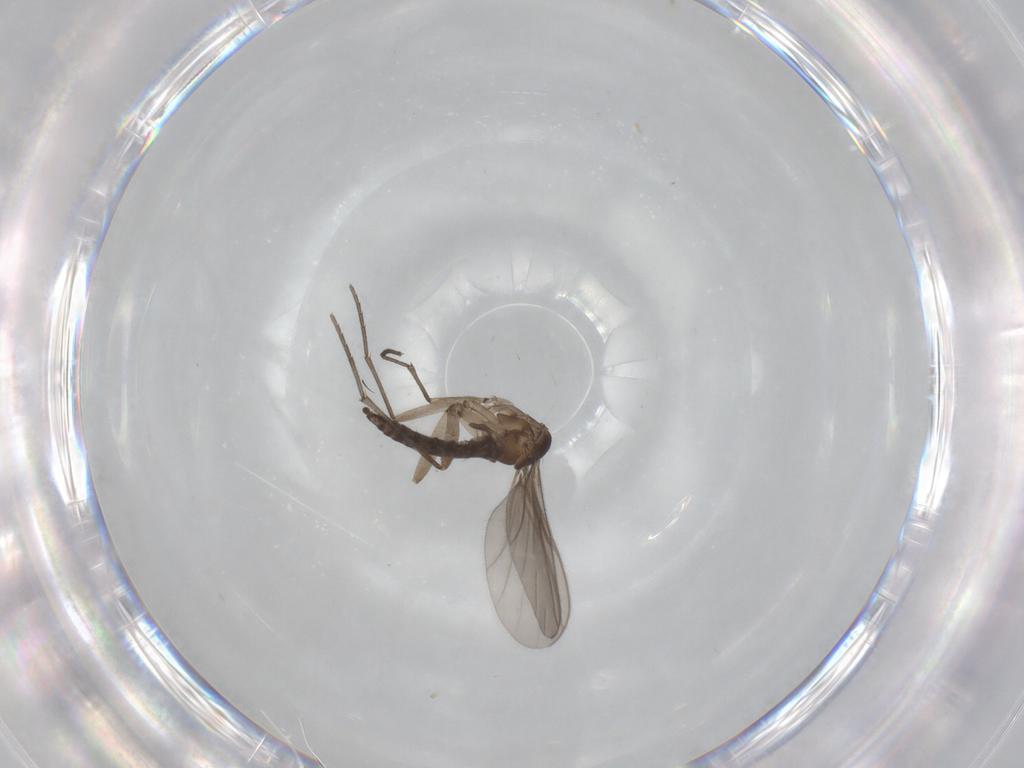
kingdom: Animalia
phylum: Arthropoda
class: Insecta
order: Diptera
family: Sciaridae
